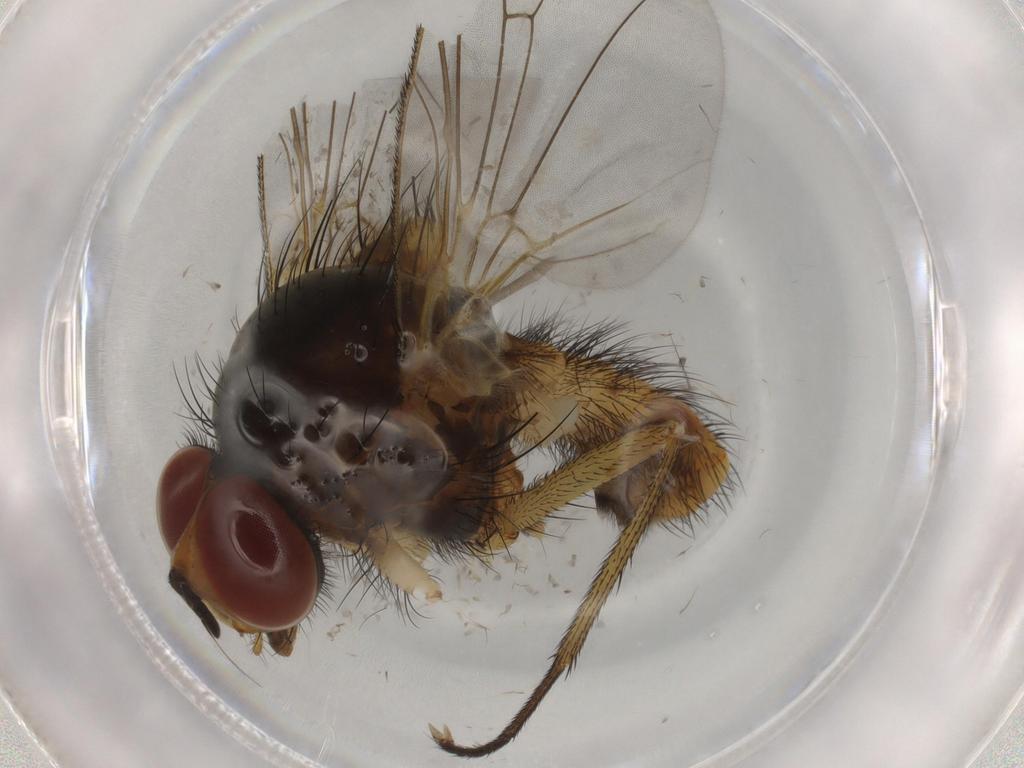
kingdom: Animalia
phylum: Arthropoda
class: Insecta
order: Diptera
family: Anthomyiidae
